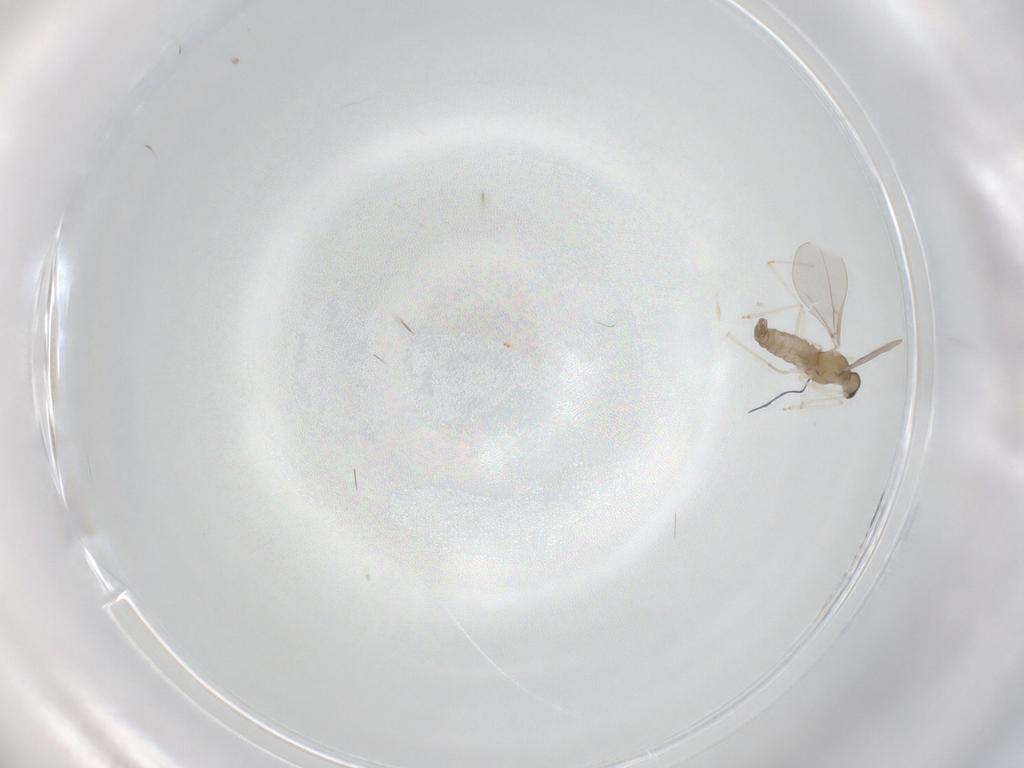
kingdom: Animalia
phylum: Arthropoda
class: Insecta
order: Diptera
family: Cecidomyiidae
